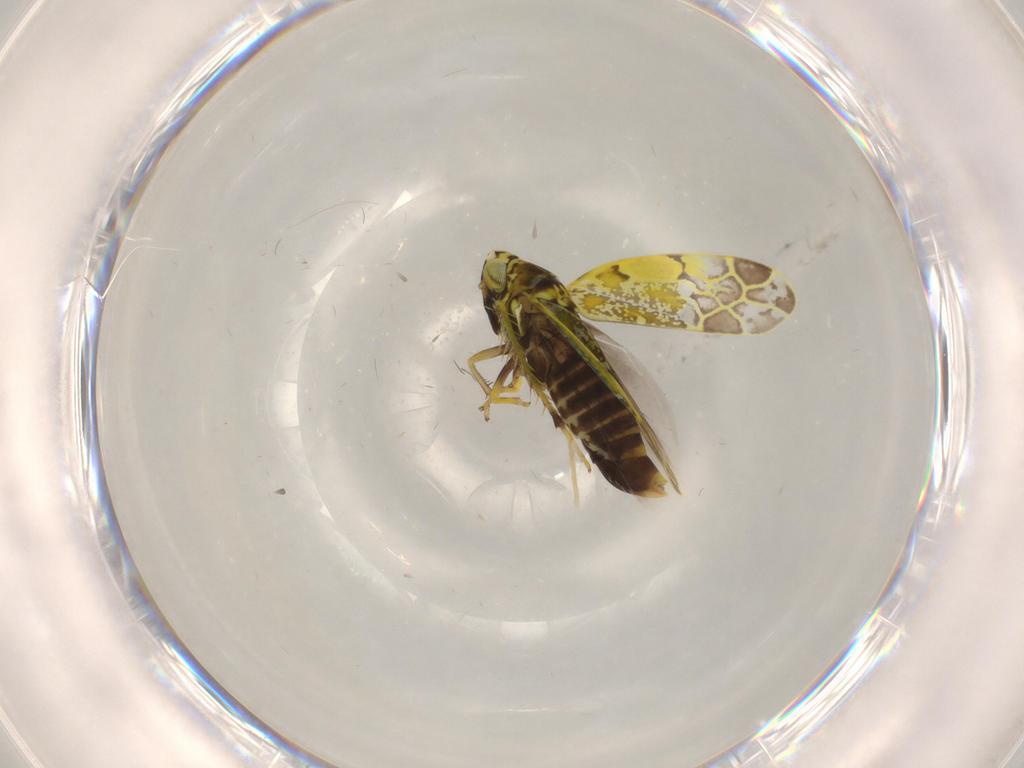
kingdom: Animalia
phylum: Arthropoda
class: Insecta
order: Hemiptera
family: Cicadellidae
